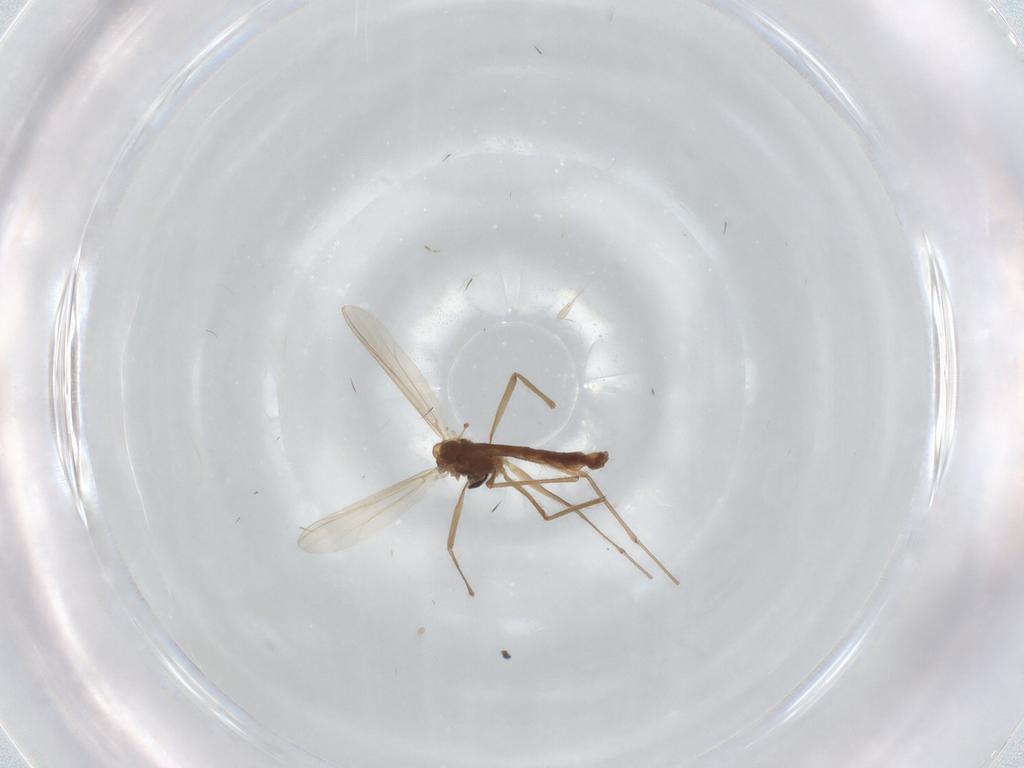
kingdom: Animalia
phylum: Arthropoda
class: Insecta
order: Diptera
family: Chironomidae
